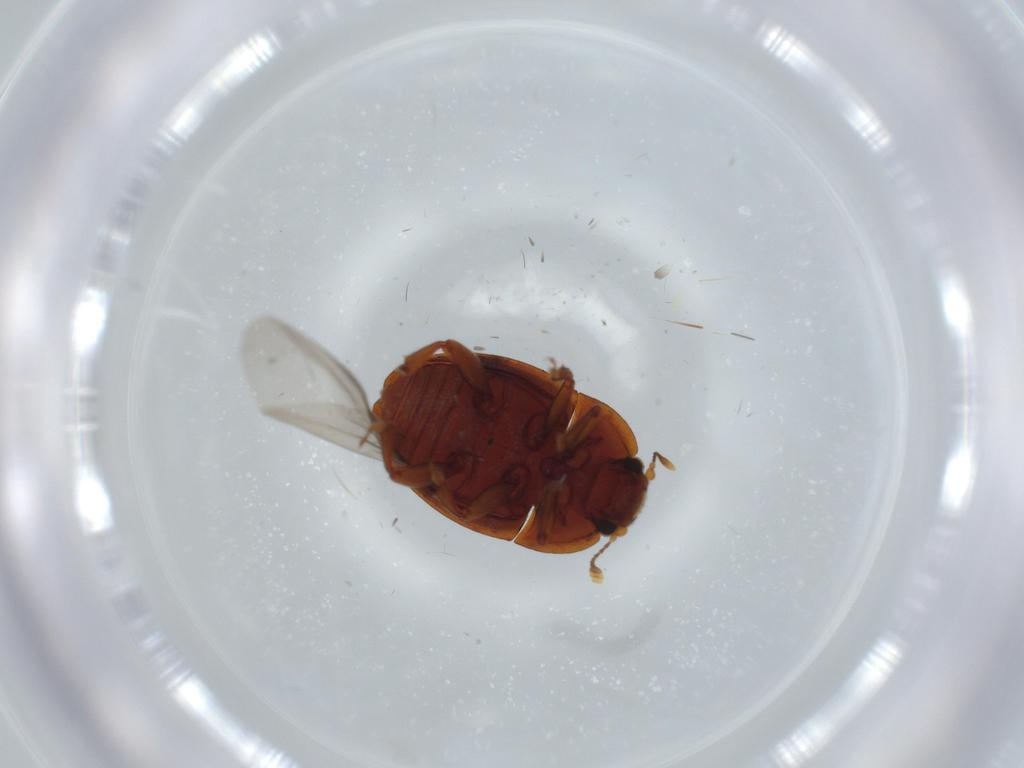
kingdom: Animalia
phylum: Arthropoda
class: Insecta
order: Coleoptera
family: Nitidulidae
